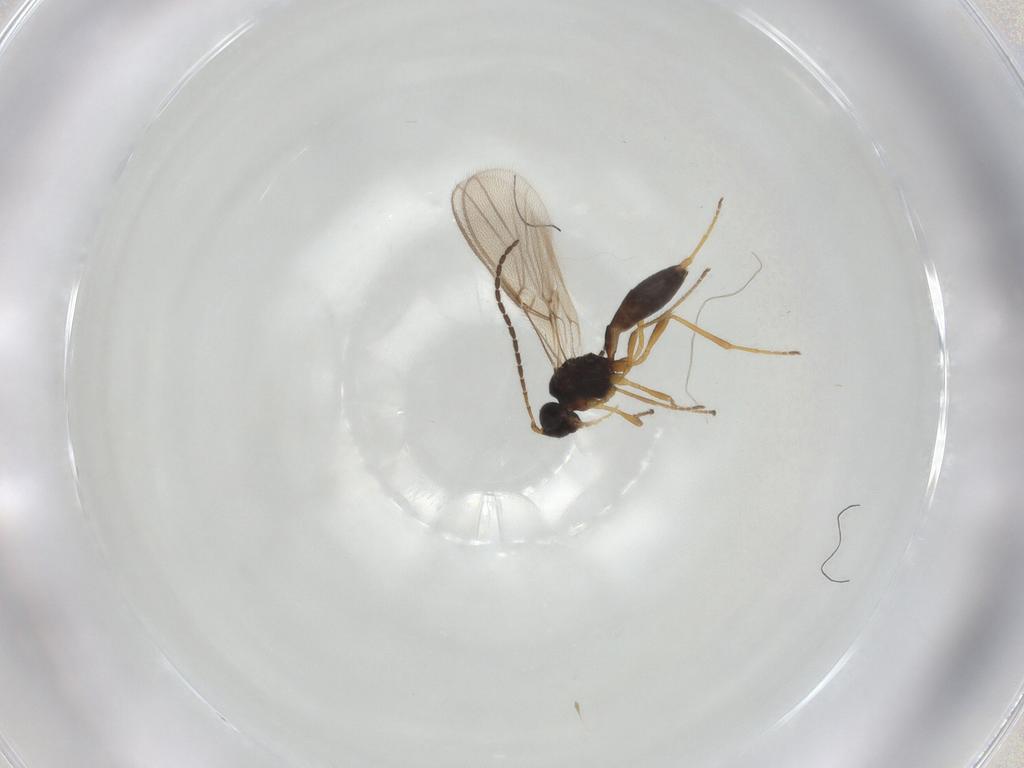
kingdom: Animalia
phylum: Arthropoda
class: Insecta
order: Hymenoptera
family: Braconidae
